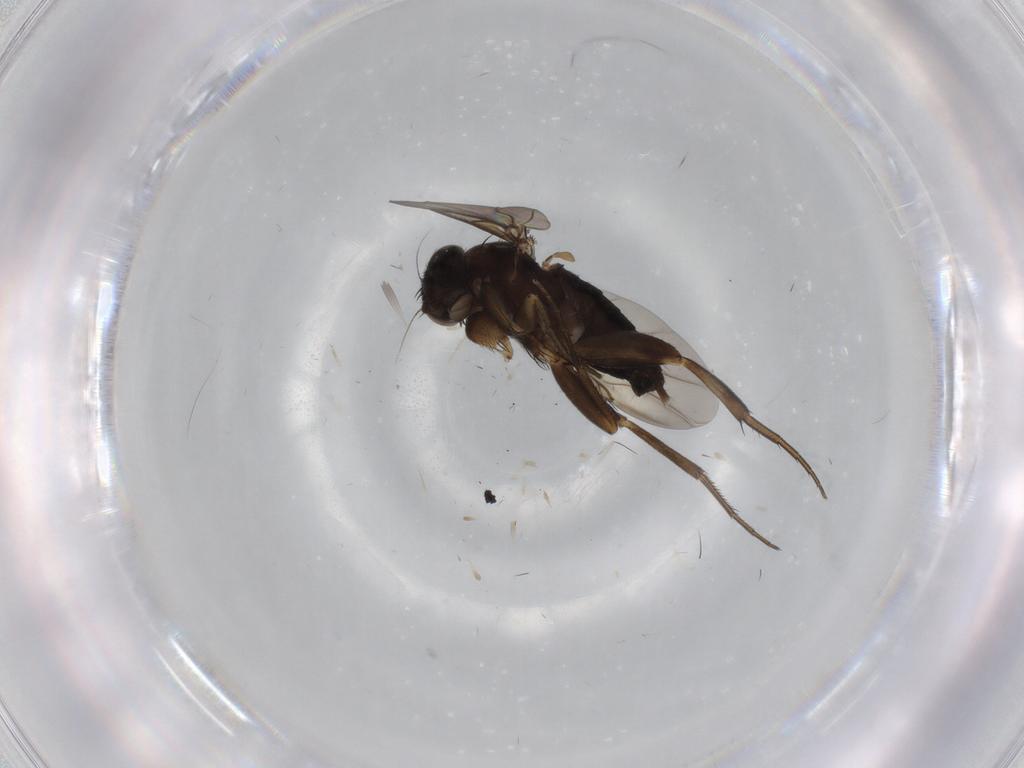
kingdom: Animalia
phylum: Arthropoda
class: Insecta
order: Diptera
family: Phoridae
